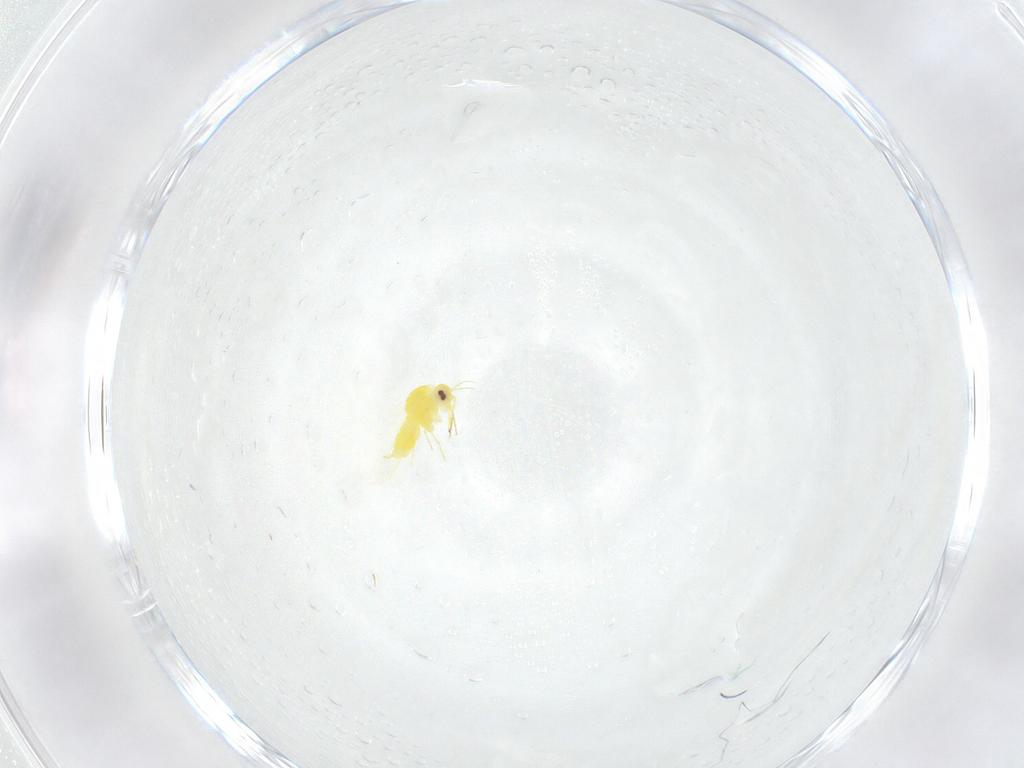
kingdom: Animalia
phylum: Arthropoda
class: Insecta
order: Hemiptera
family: Aleyrodidae
